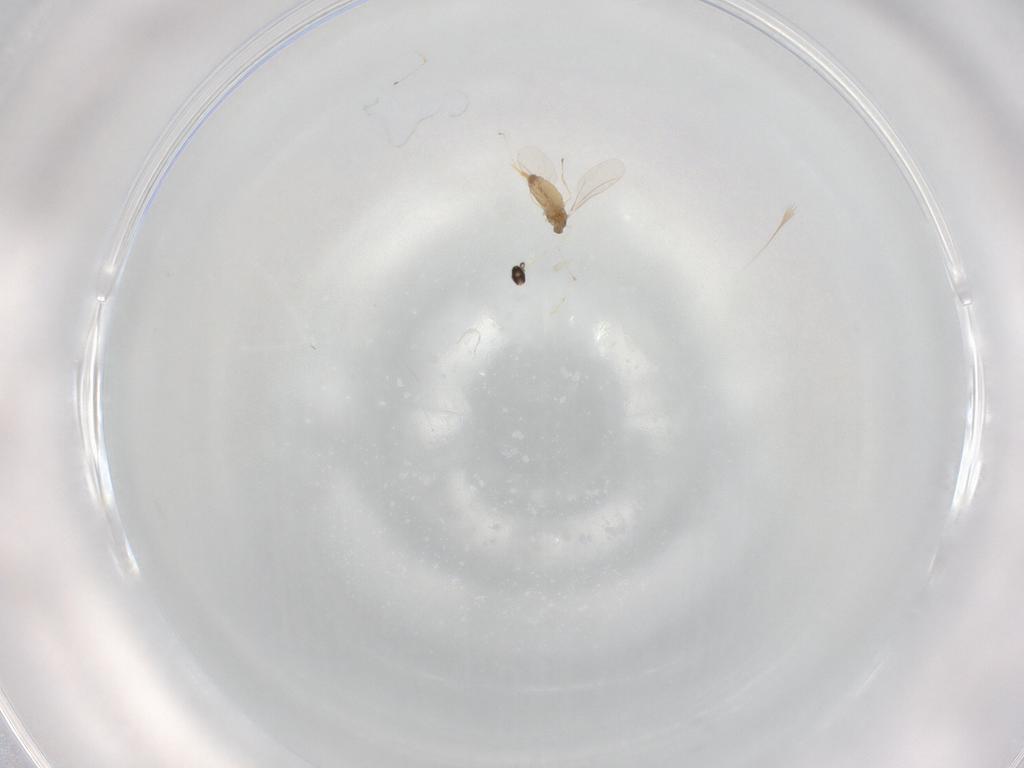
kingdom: Animalia
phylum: Arthropoda
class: Insecta
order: Diptera
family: Cecidomyiidae
